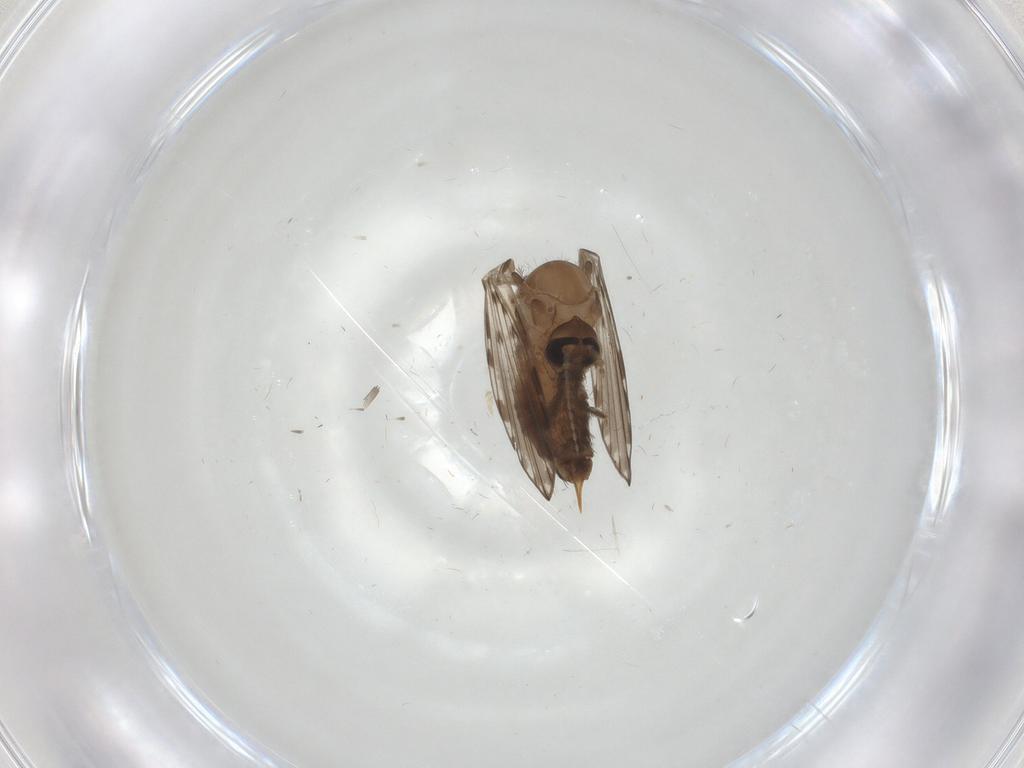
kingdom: Animalia
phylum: Arthropoda
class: Insecta
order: Diptera
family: Psychodidae
